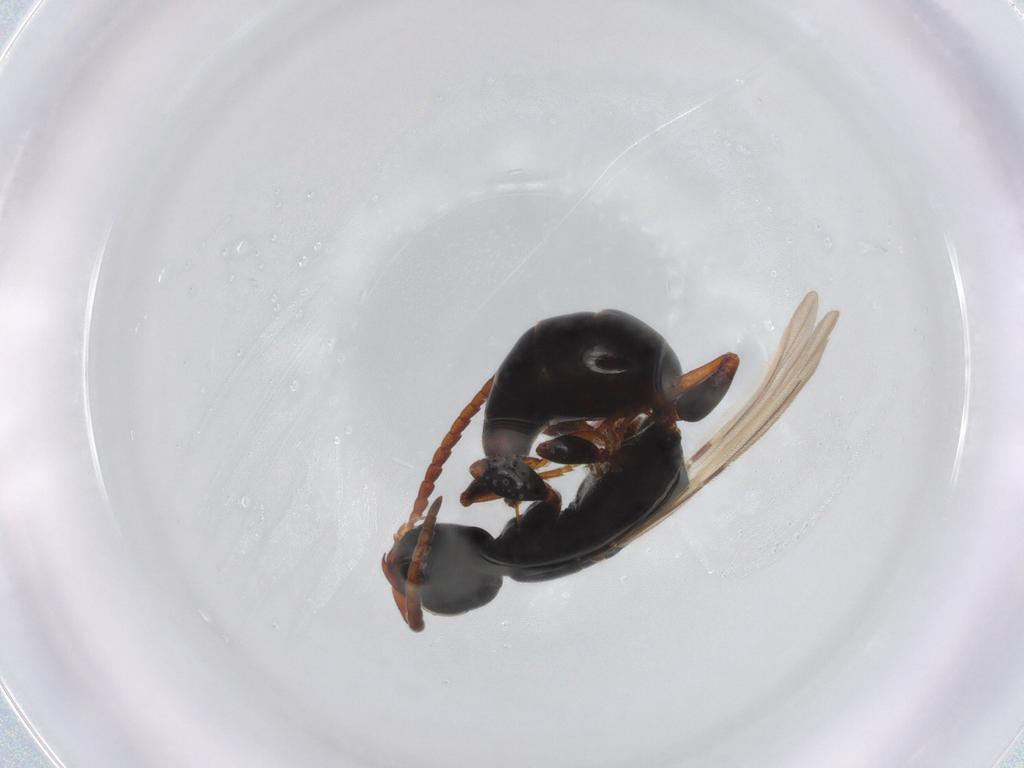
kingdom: Animalia
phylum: Arthropoda
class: Insecta
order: Hymenoptera
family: Bethylidae
